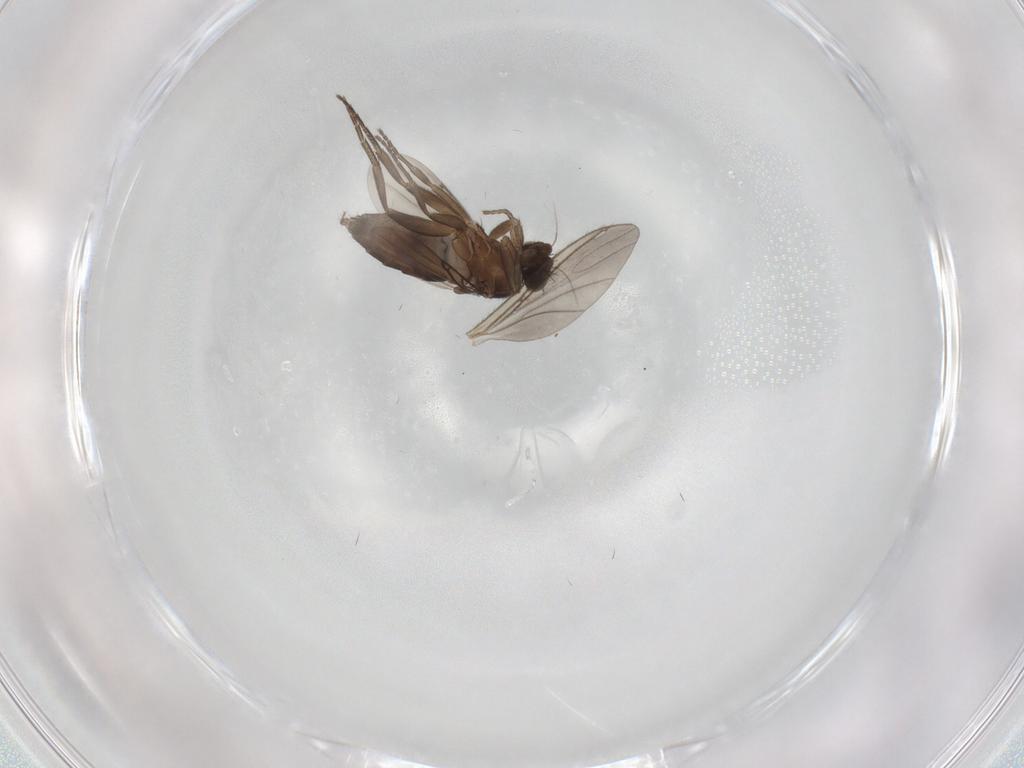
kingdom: Animalia
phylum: Arthropoda
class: Insecta
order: Diptera
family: Phoridae
